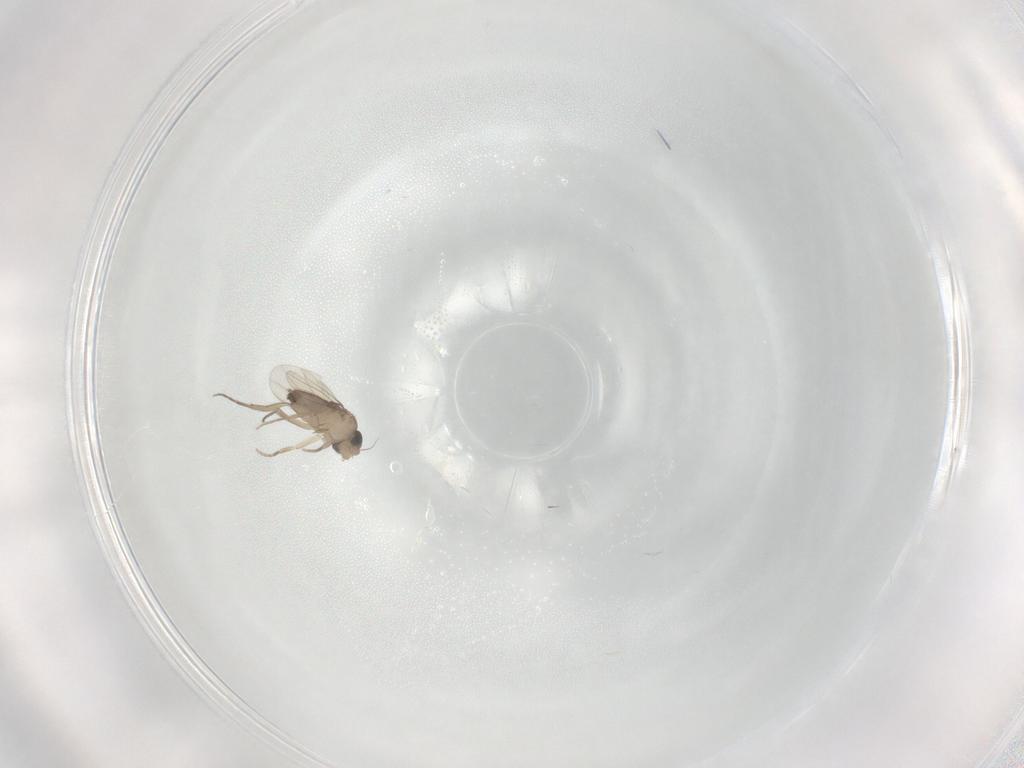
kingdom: Animalia
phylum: Arthropoda
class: Insecta
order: Diptera
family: Phoridae
